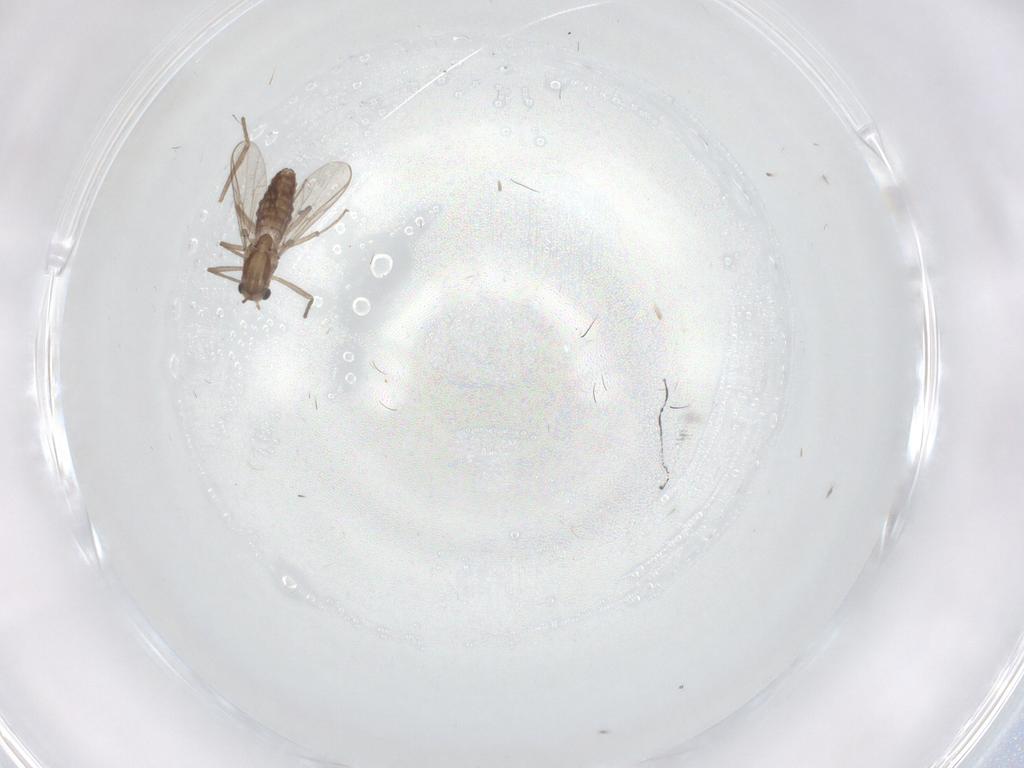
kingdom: Animalia
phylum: Arthropoda
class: Insecta
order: Diptera
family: Chironomidae
